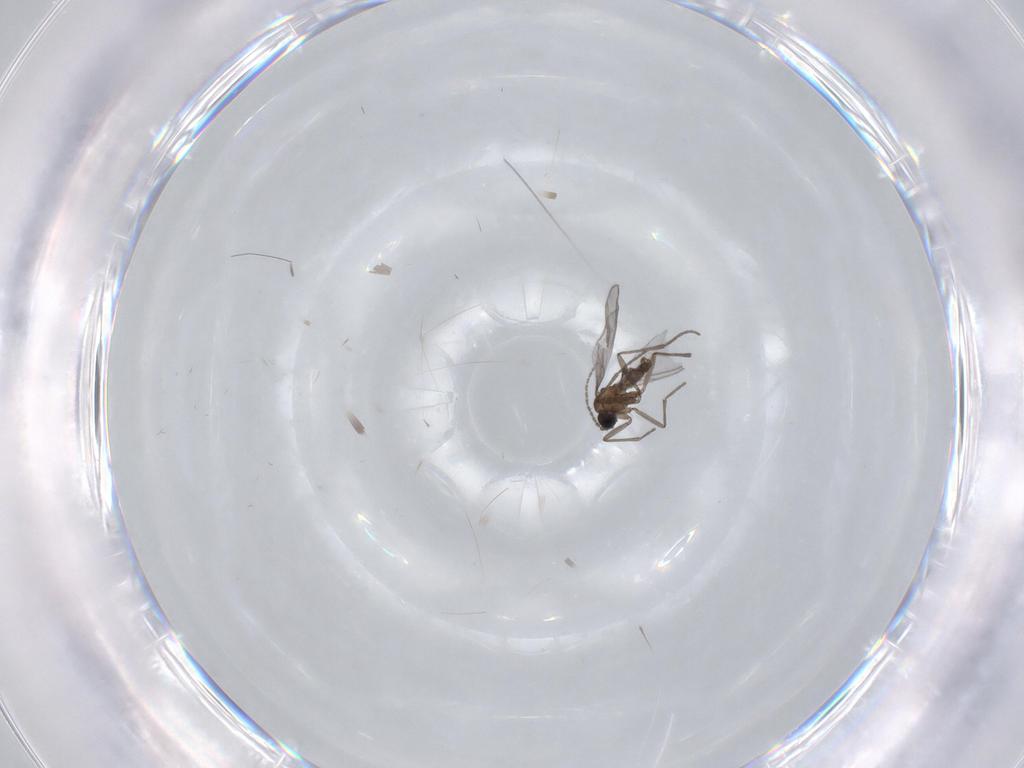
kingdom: Animalia
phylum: Arthropoda
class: Insecta
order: Diptera
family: Sciaridae
